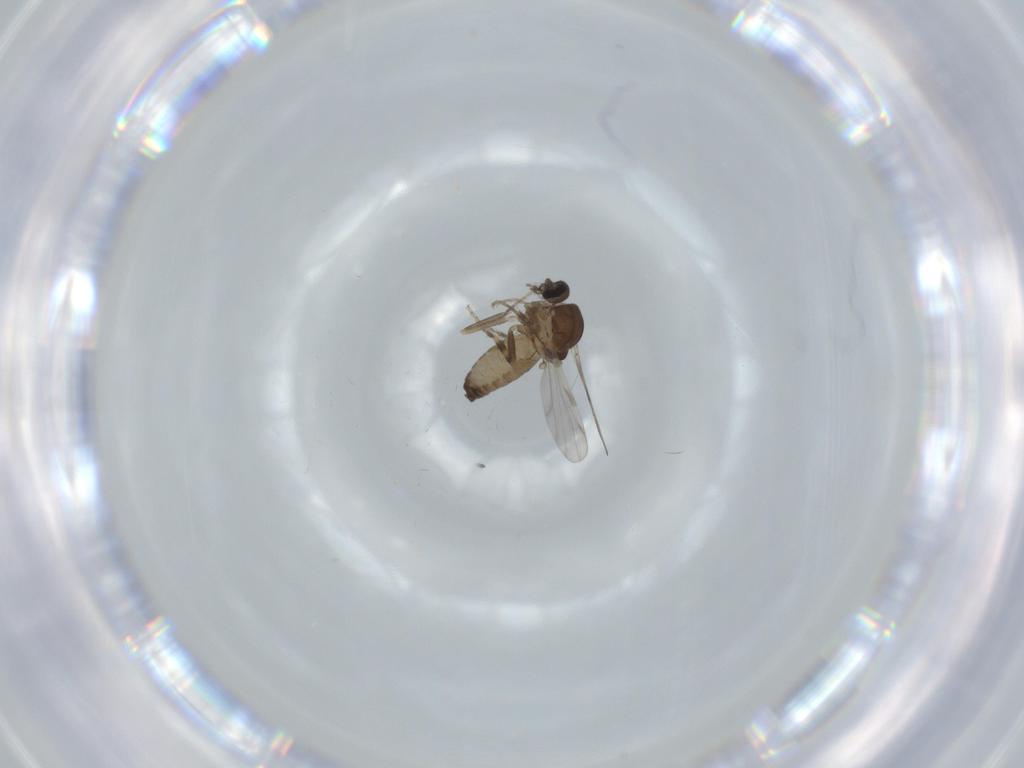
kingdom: Animalia
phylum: Arthropoda
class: Insecta
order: Diptera
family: Ceratopogonidae
